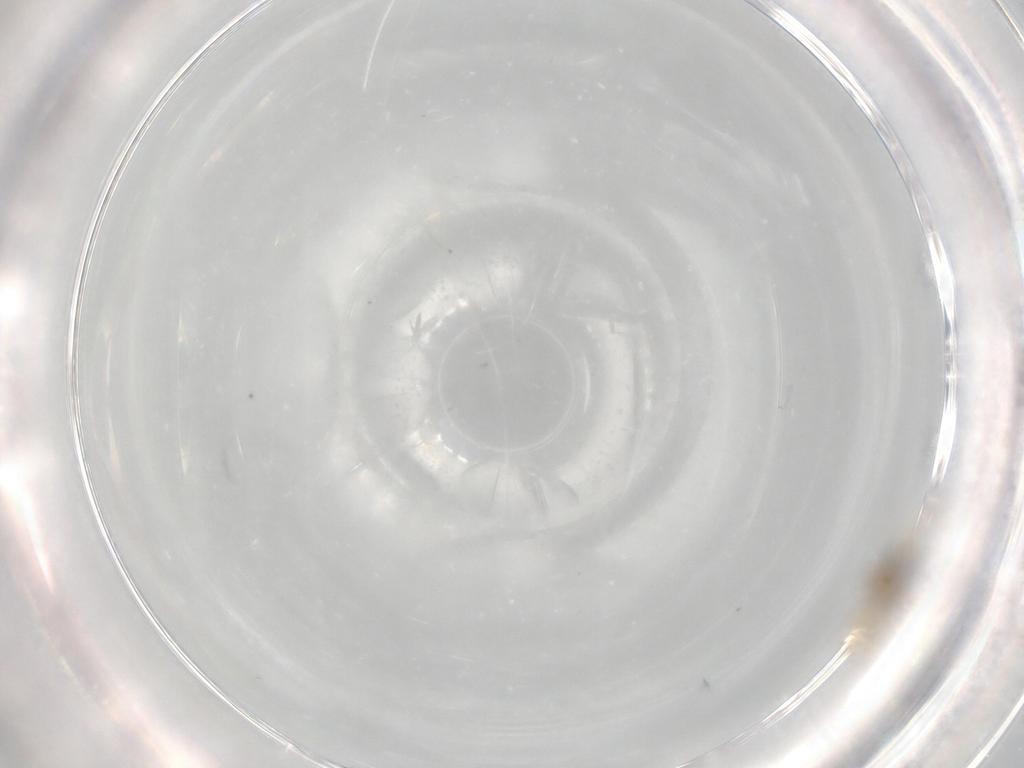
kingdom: Animalia
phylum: Arthropoda
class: Insecta
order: Diptera
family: Cecidomyiidae
